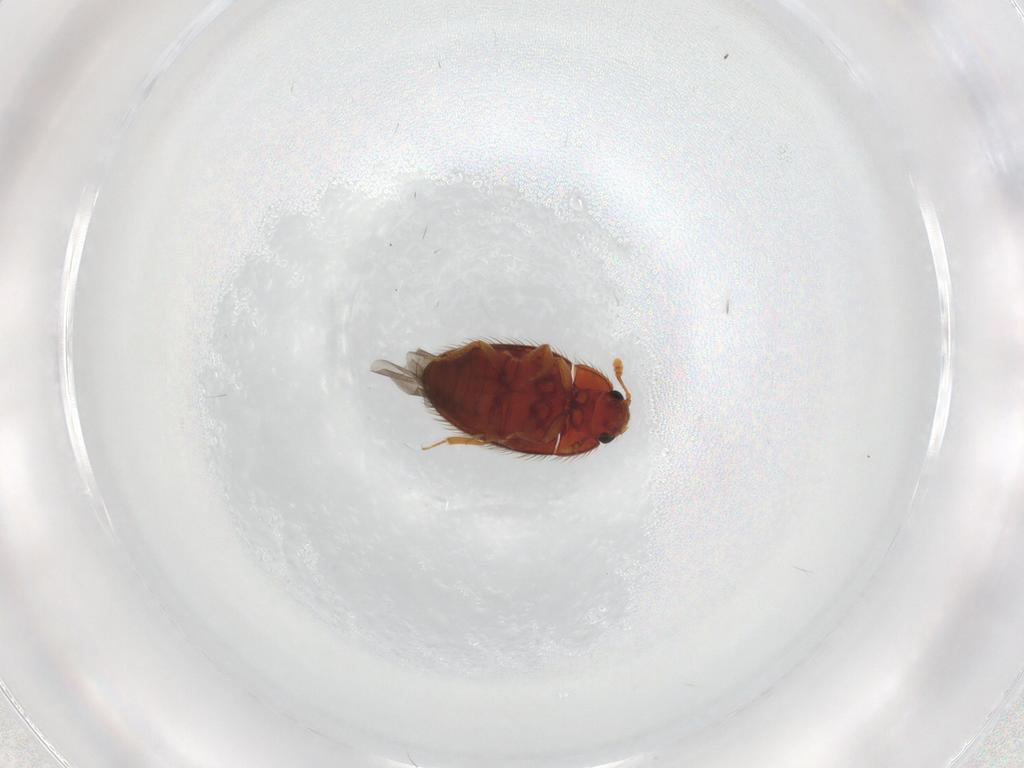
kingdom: Animalia
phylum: Arthropoda
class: Insecta
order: Coleoptera
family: Biphyllidae
